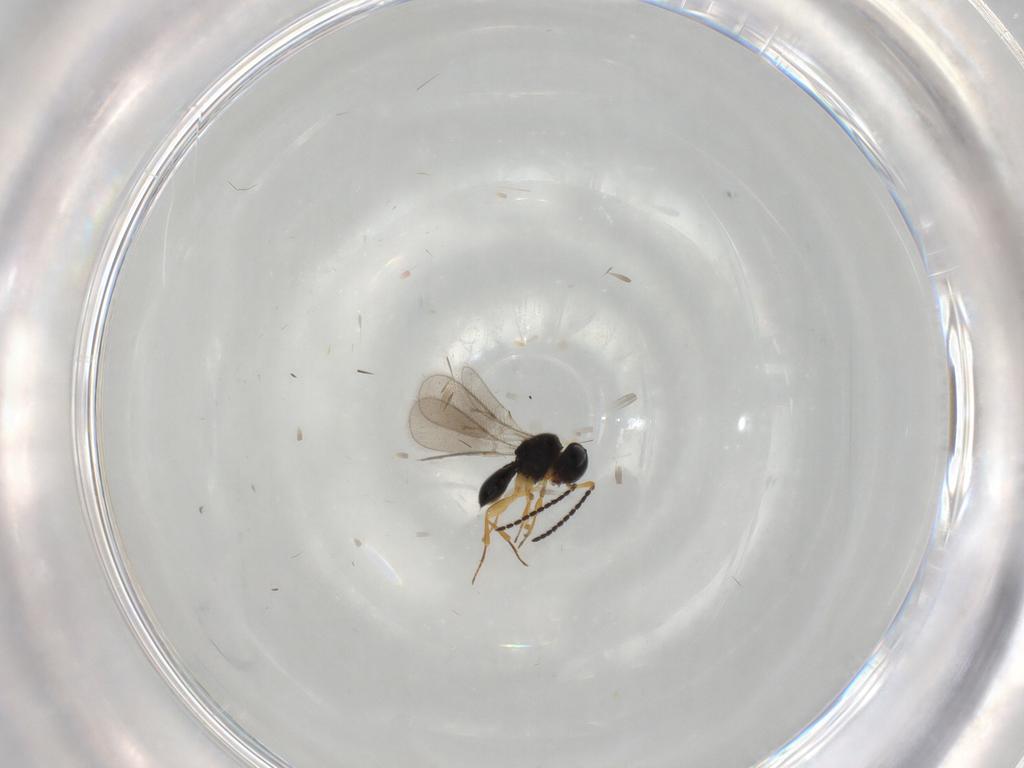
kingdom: Animalia
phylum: Arthropoda
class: Insecta
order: Hymenoptera
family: Scelionidae
